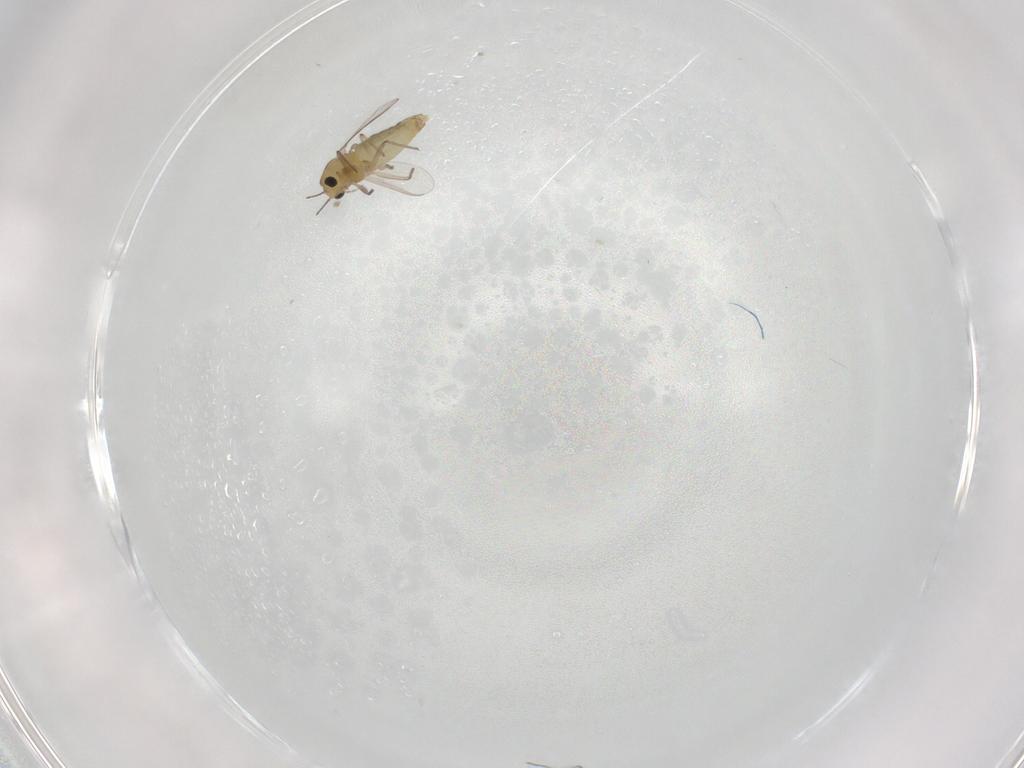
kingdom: Animalia
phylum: Arthropoda
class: Insecta
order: Diptera
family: Chironomidae
